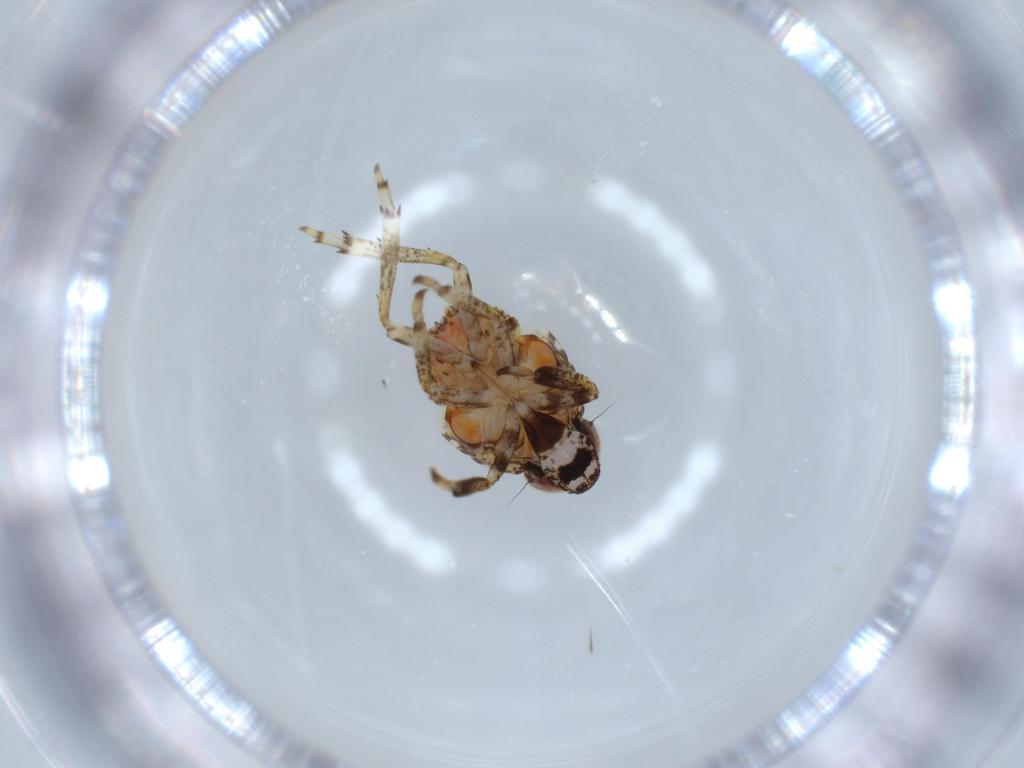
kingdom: Animalia
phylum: Arthropoda
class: Insecta
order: Hemiptera
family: Issidae
